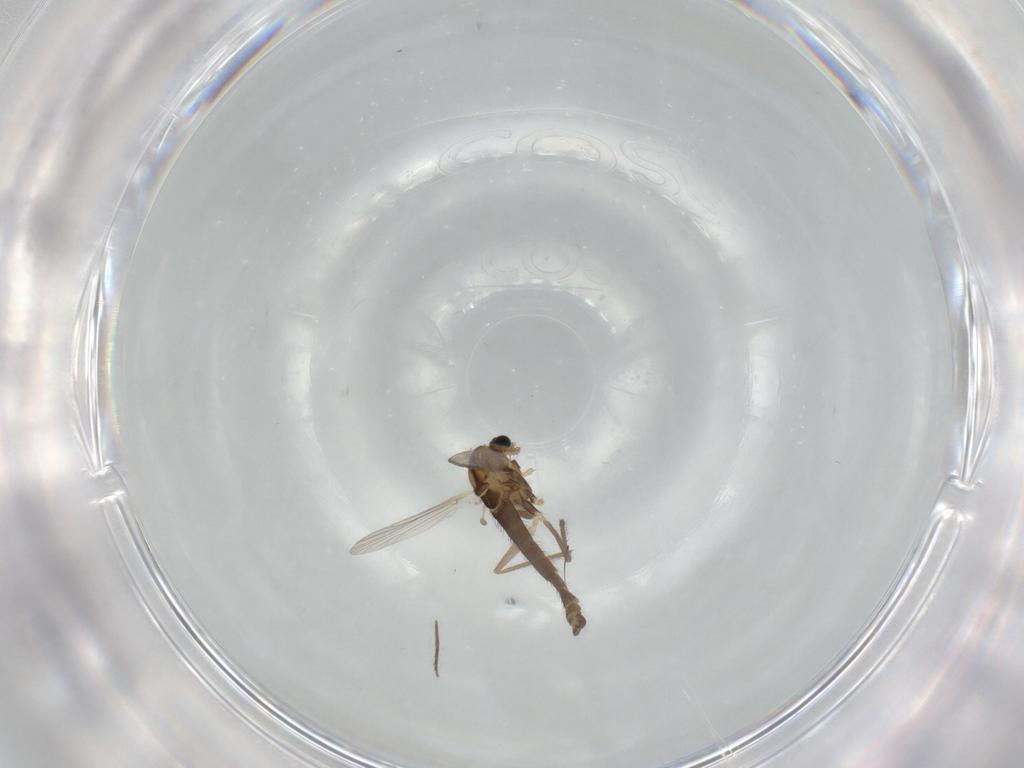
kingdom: Animalia
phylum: Arthropoda
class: Insecta
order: Diptera
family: Chironomidae
